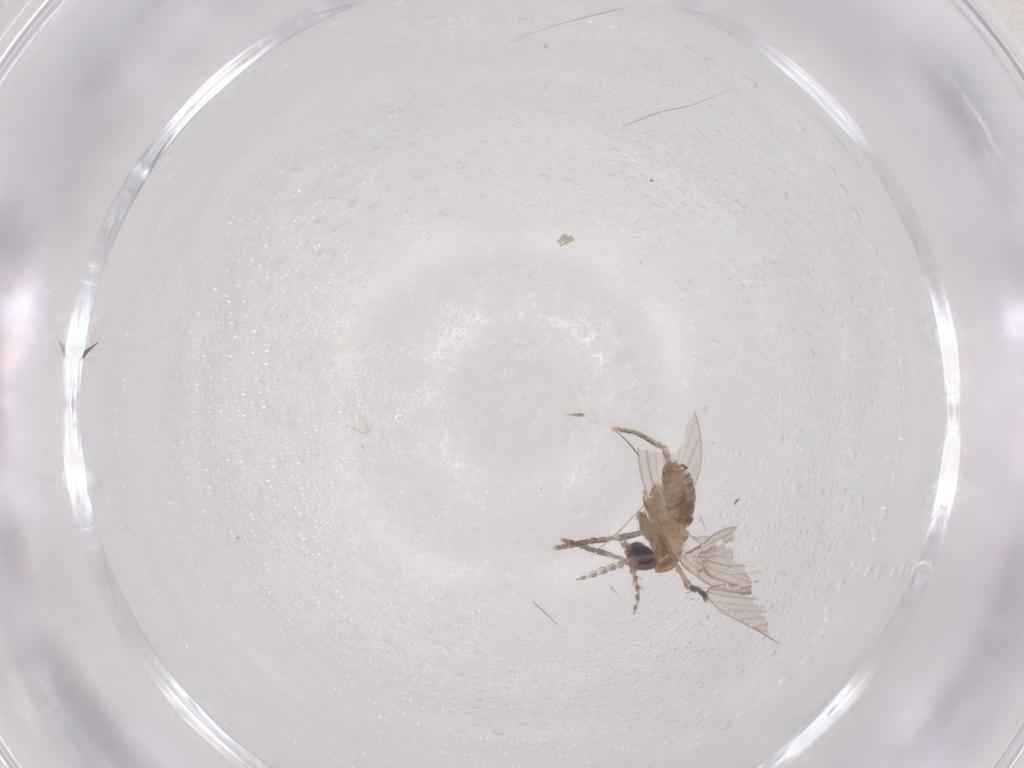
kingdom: Animalia
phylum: Arthropoda
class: Insecta
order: Diptera
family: Psychodidae
